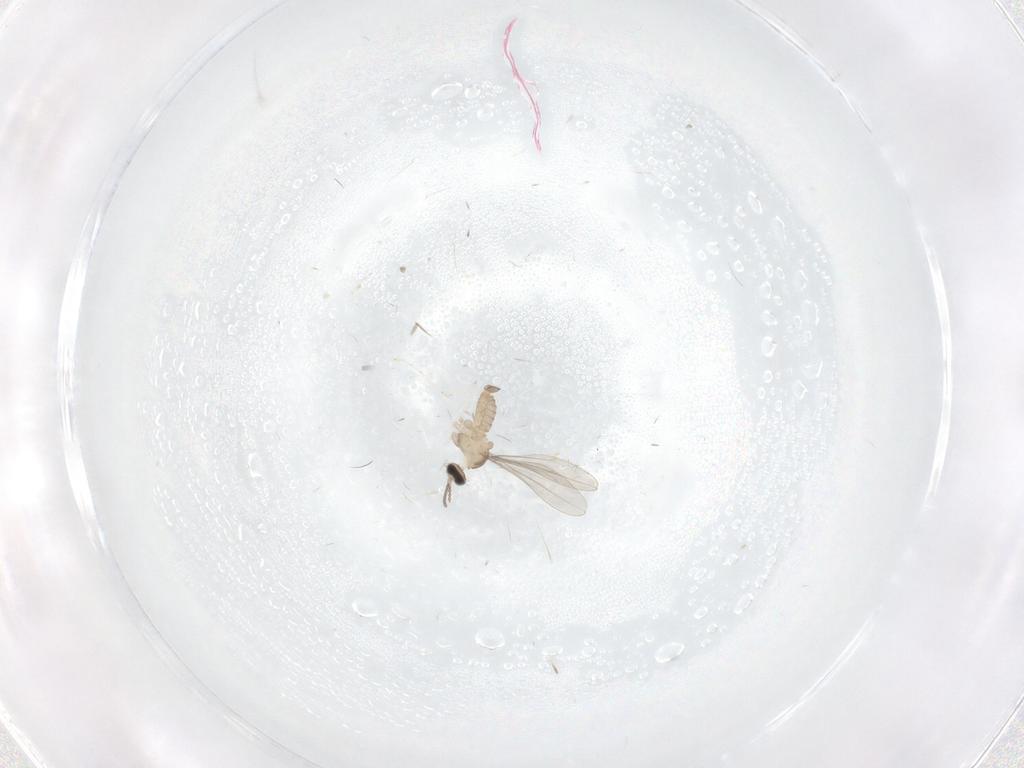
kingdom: Animalia
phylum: Arthropoda
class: Insecta
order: Diptera
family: Cecidomyiidae
